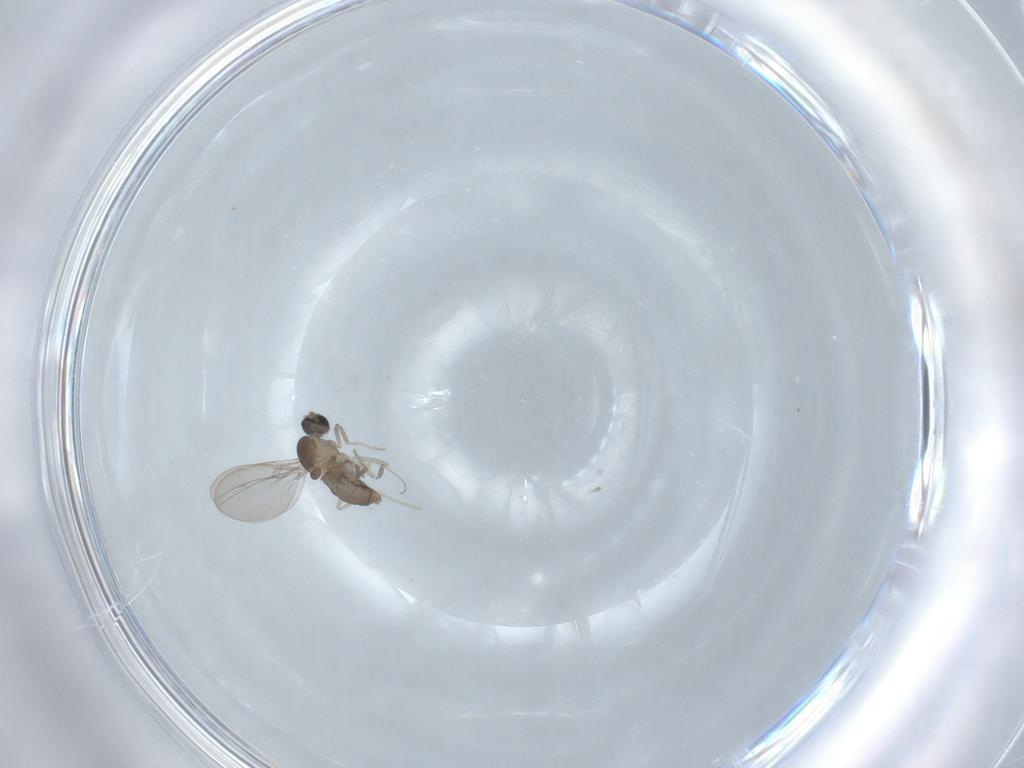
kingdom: Animalia
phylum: Arthropoda
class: Insecta
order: Diptera
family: Cecidomyiidae
